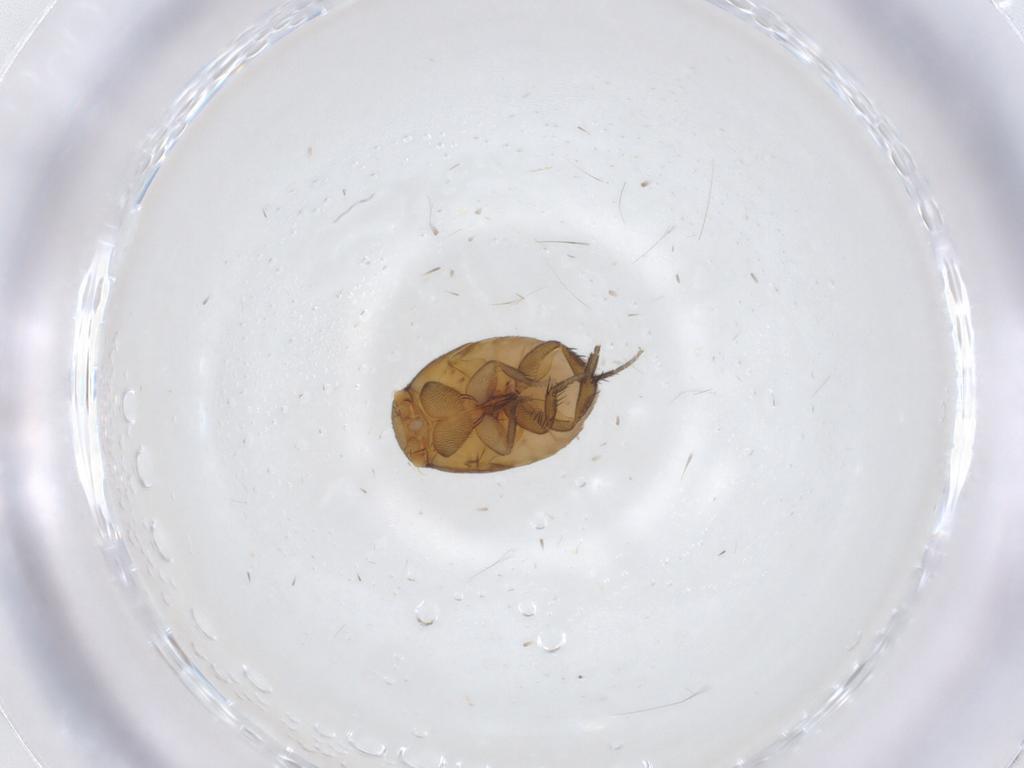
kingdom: Animalia
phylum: Arthropoda
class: Insecta
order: Diptera
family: Phoridae
